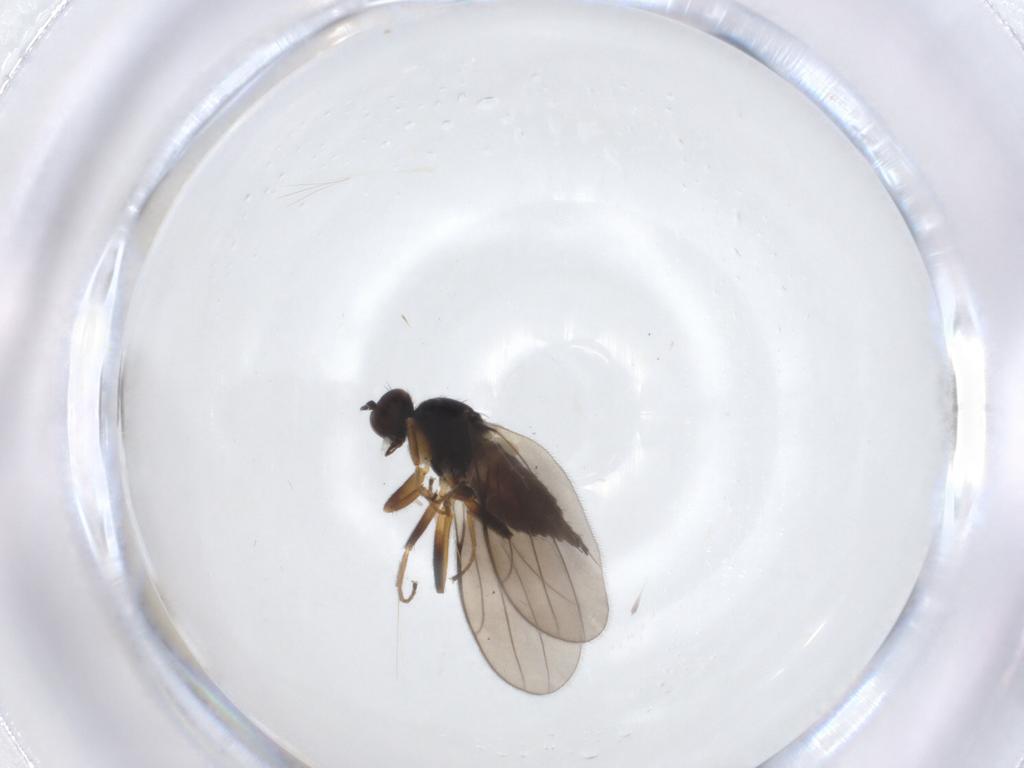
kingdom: Animalia
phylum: Arthropoda
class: Insecta
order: Diptera
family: Hybotidae
